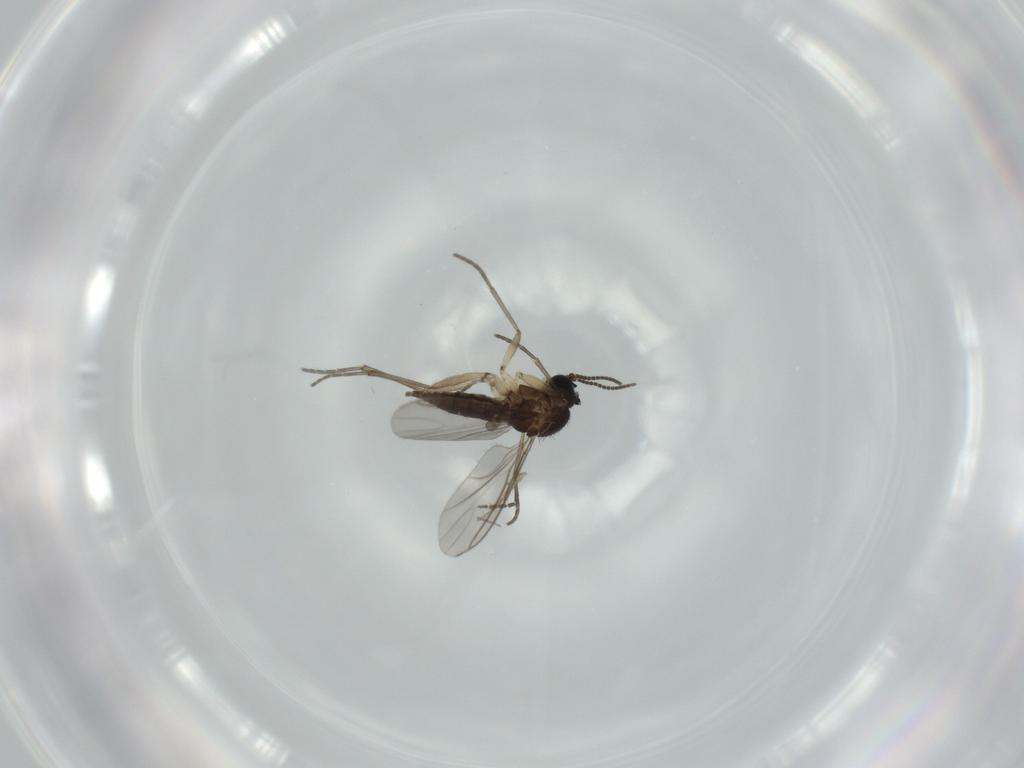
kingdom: Animalia
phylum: Arthropoda
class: Insecta
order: Diptera
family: Sciaridae
